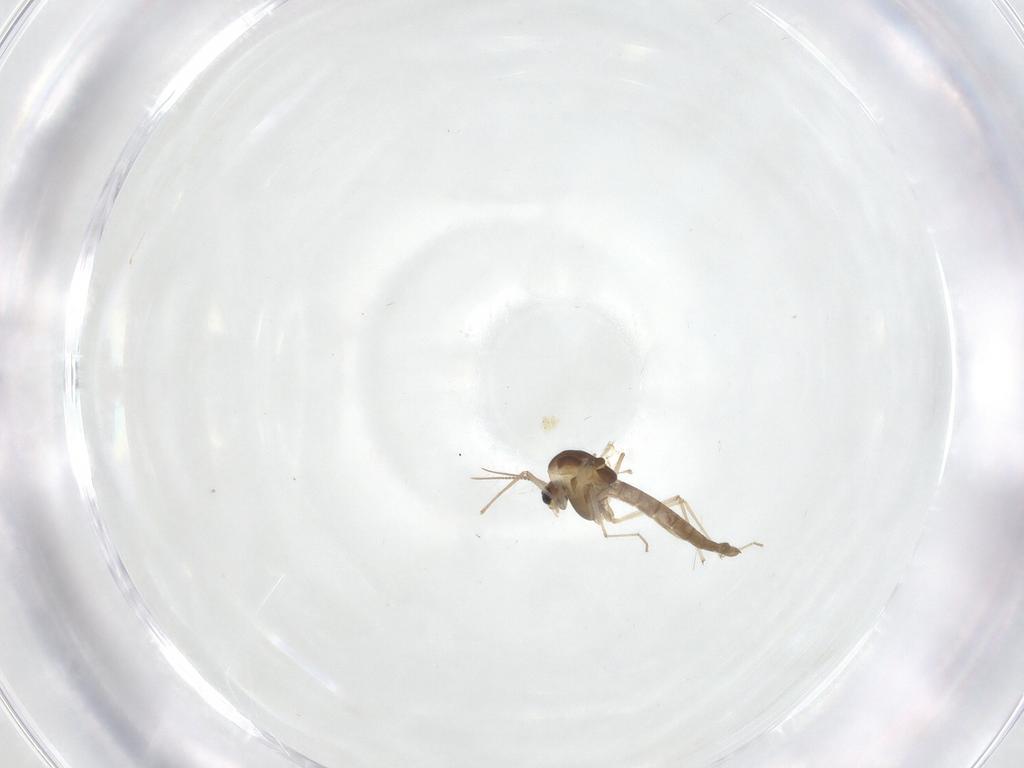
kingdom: Animalia
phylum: Arthropoda
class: Insecta
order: Diptera
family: Cecidomyiidae
